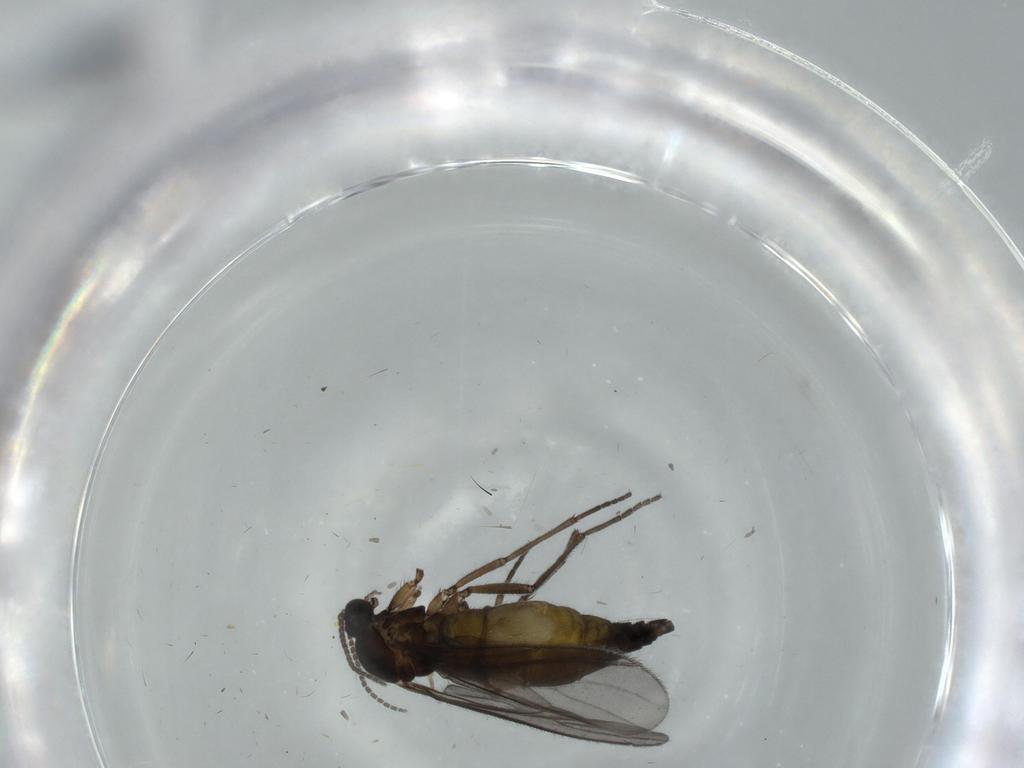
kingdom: Animalia
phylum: Arthropoda
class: Insecta
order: Diptera
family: Sciaridae
